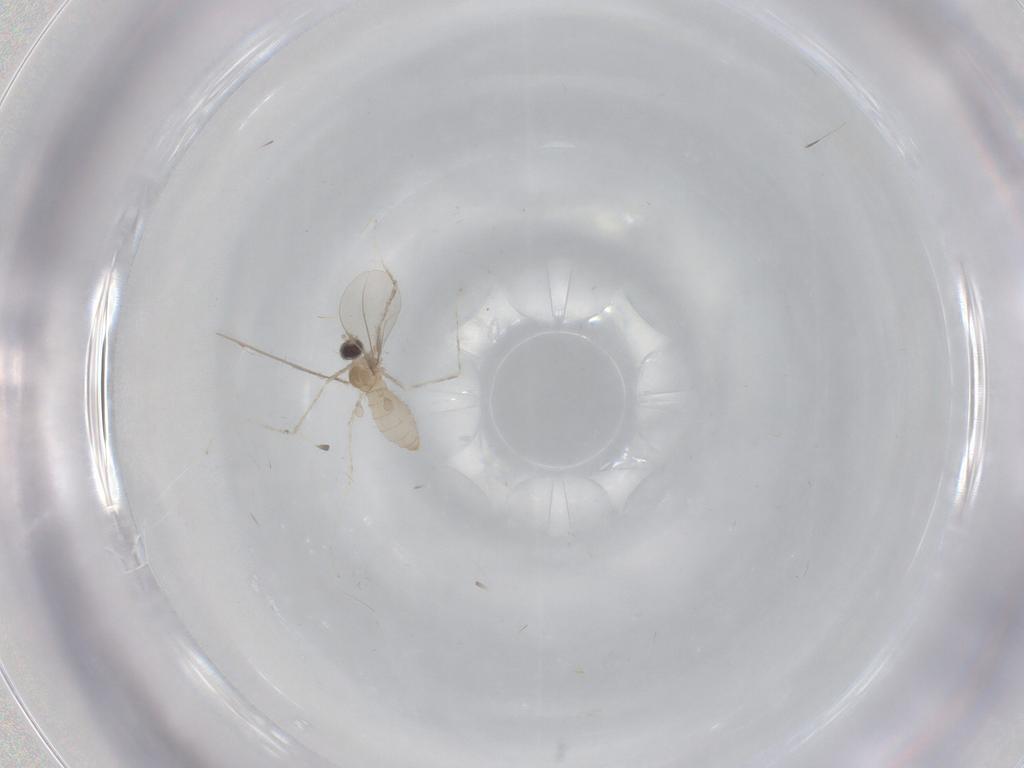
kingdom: Animalia
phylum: Arthropoda
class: Insecta
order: Diptera
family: Cecidomyiidae
